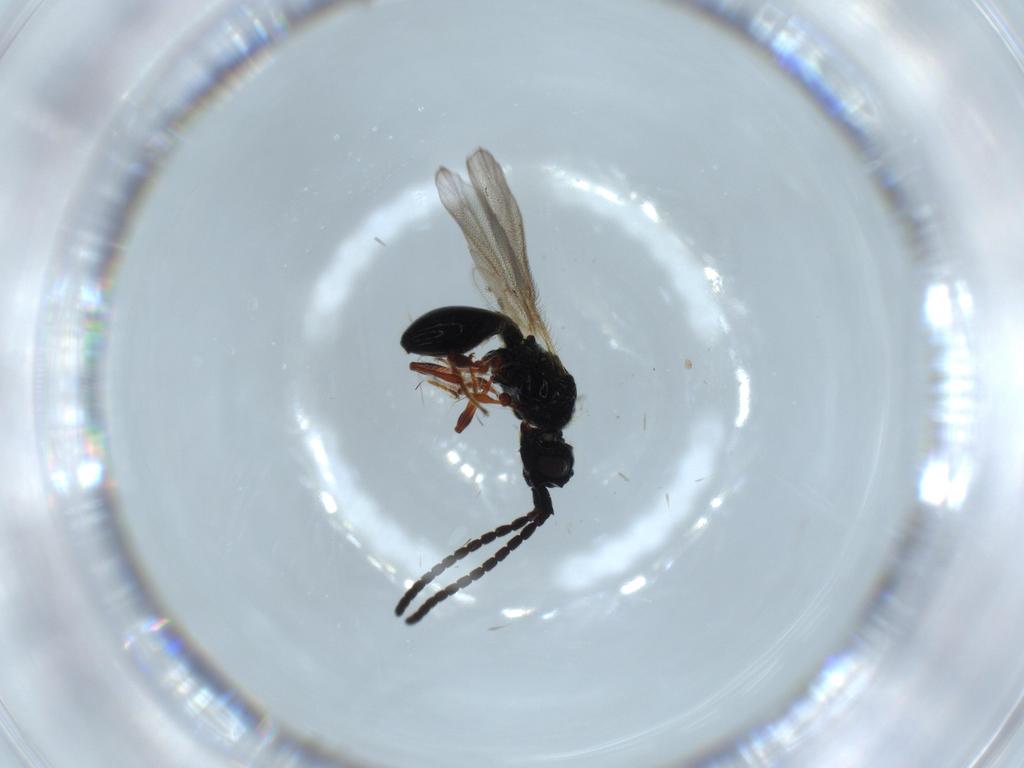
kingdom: Animalia
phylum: Arthropoda
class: Insecta
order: Hymenoptera
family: Diapriidae
